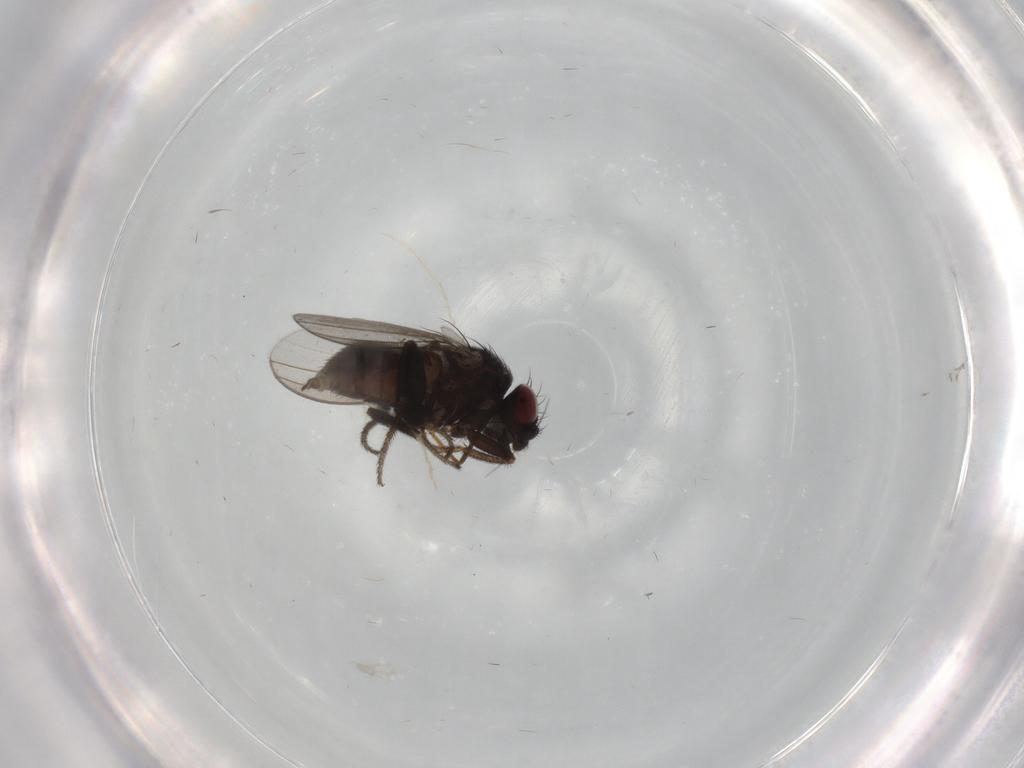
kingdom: Animalia
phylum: Arthropoda
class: Insecta
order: Diptera
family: Milichiidae
